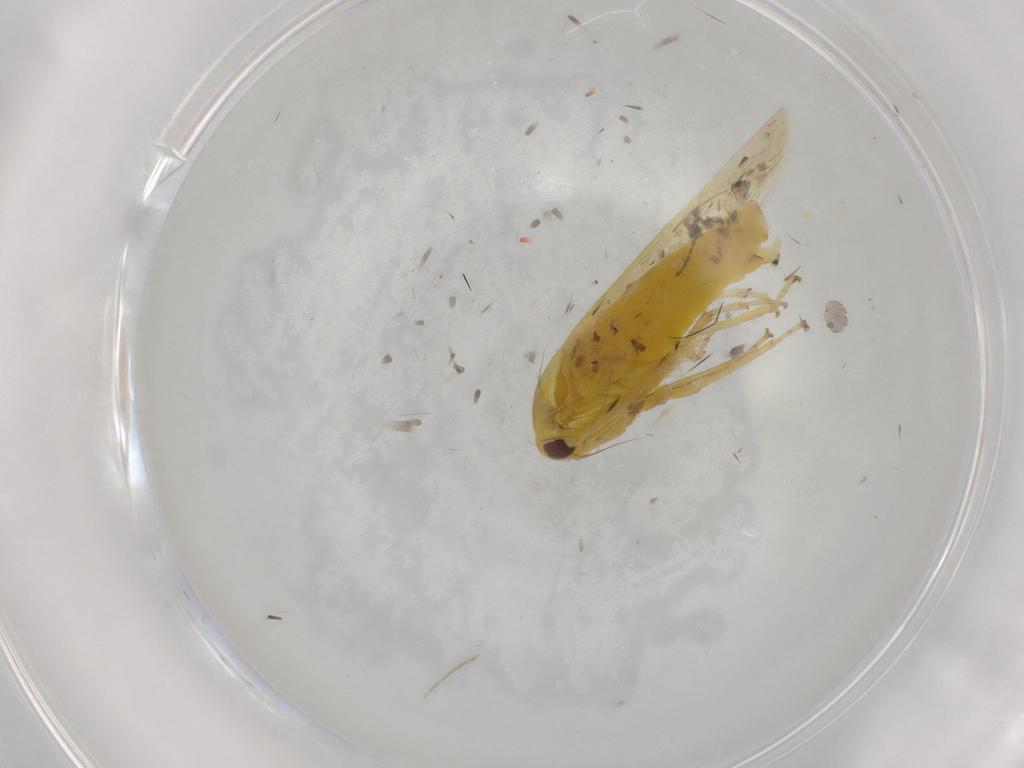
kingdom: Animalia
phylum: Arthropoda
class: Insecta
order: Hemiptera
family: Cicadellidae
